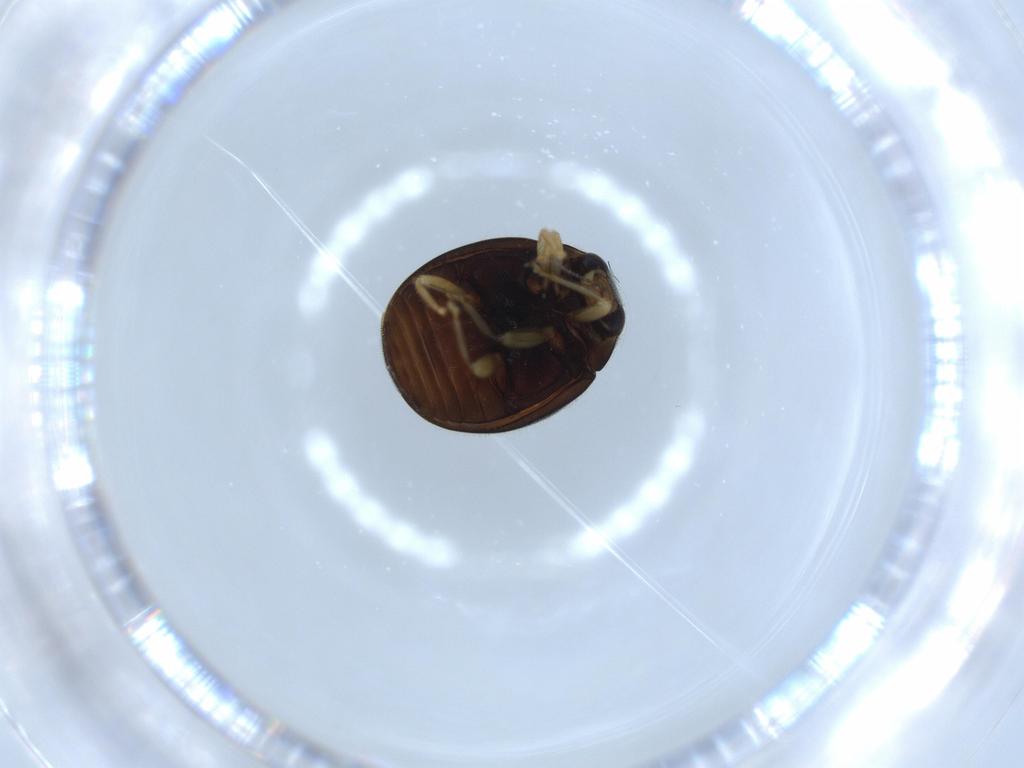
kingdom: Animalia
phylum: Arthropoda
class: Insecta
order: Coleoptera
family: Coccinellidae
